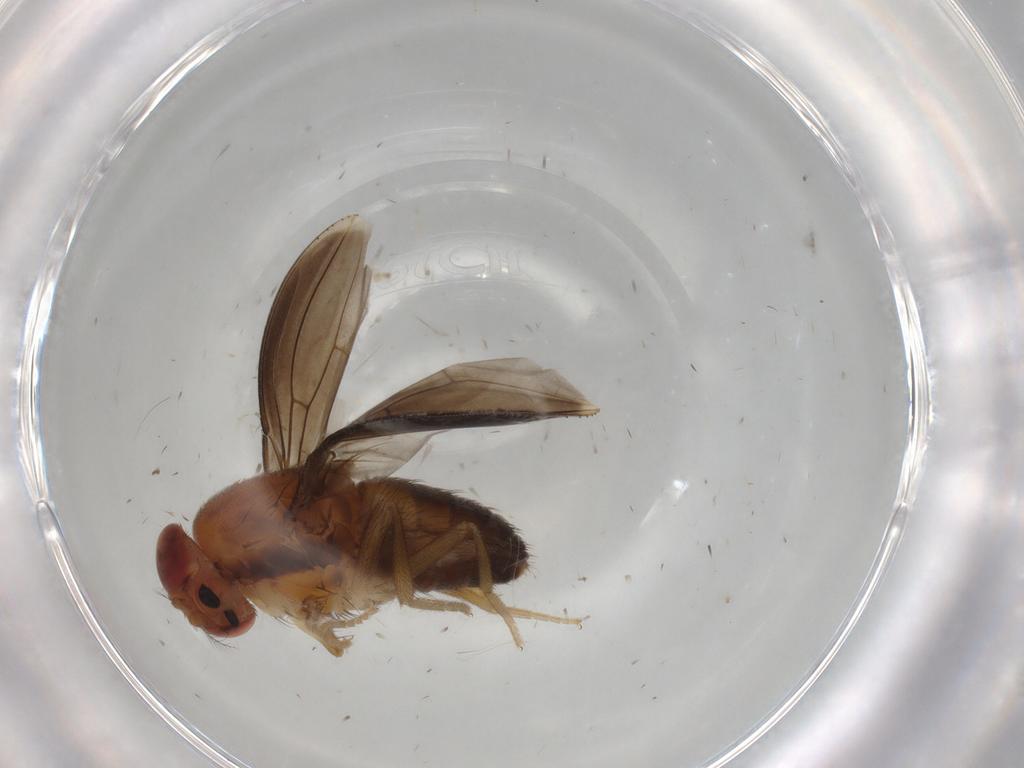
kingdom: Animalia
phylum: Arthropoda
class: Insecta
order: Diptera
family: Drosophilidae
